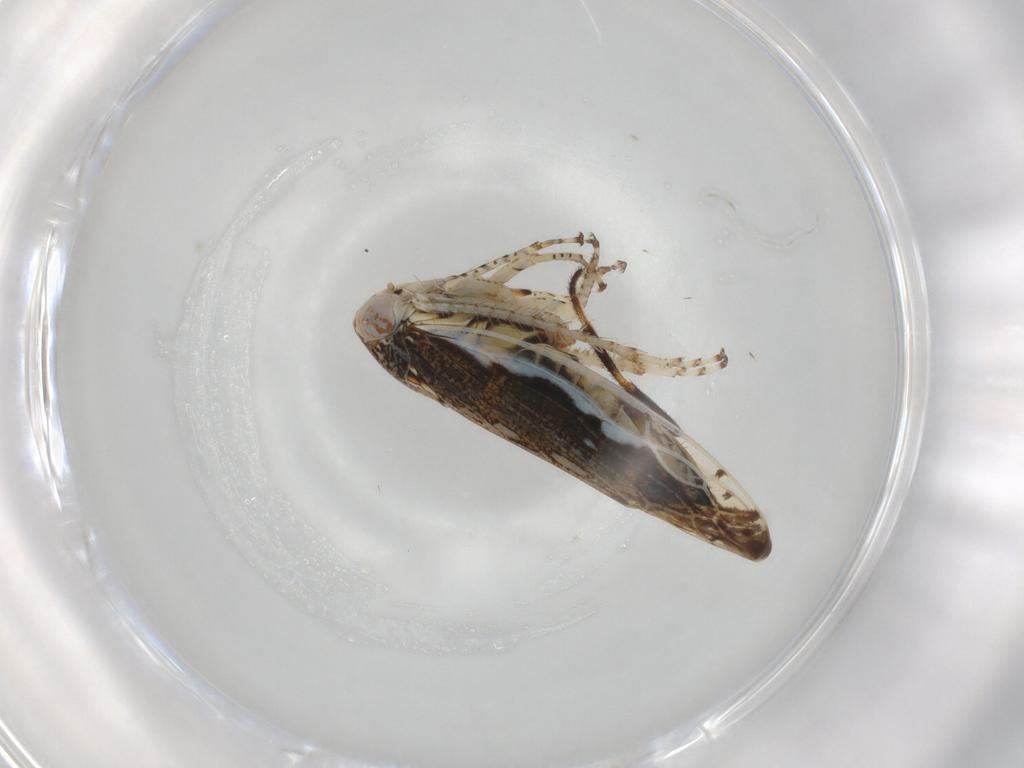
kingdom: Animalia
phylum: Arthropoda
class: Insecta
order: Hemiptera
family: Cicadellidae
